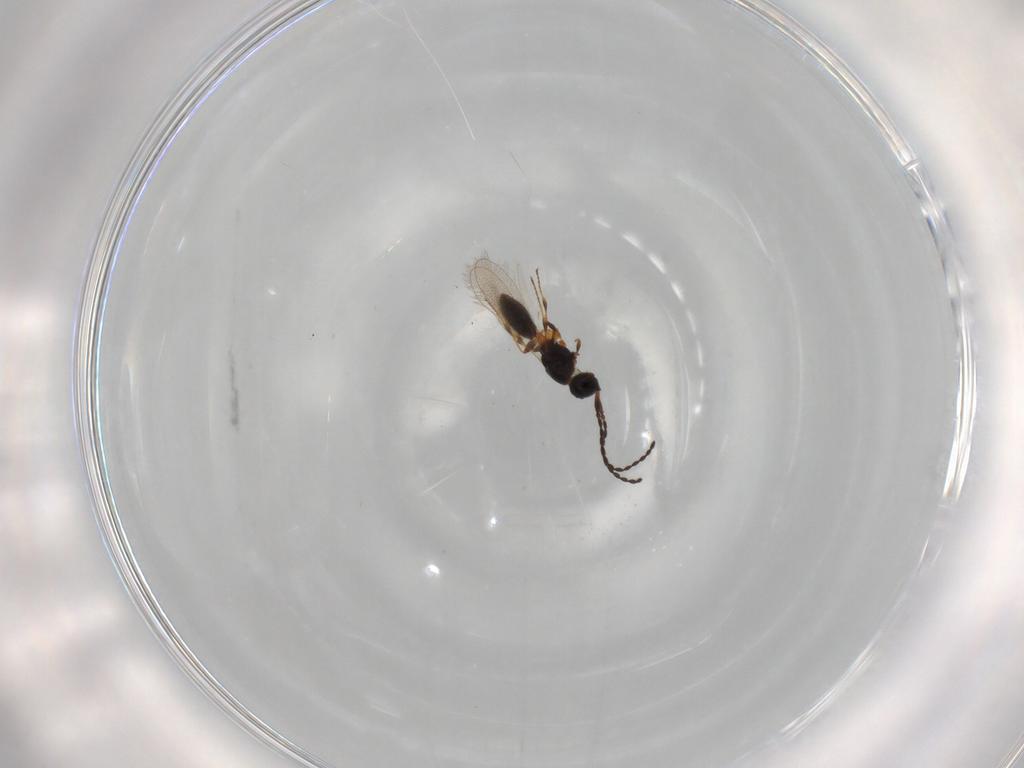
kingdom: Animalia
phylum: Arthropoda
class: Insecta
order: Hymenoptera
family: Diapriidae
